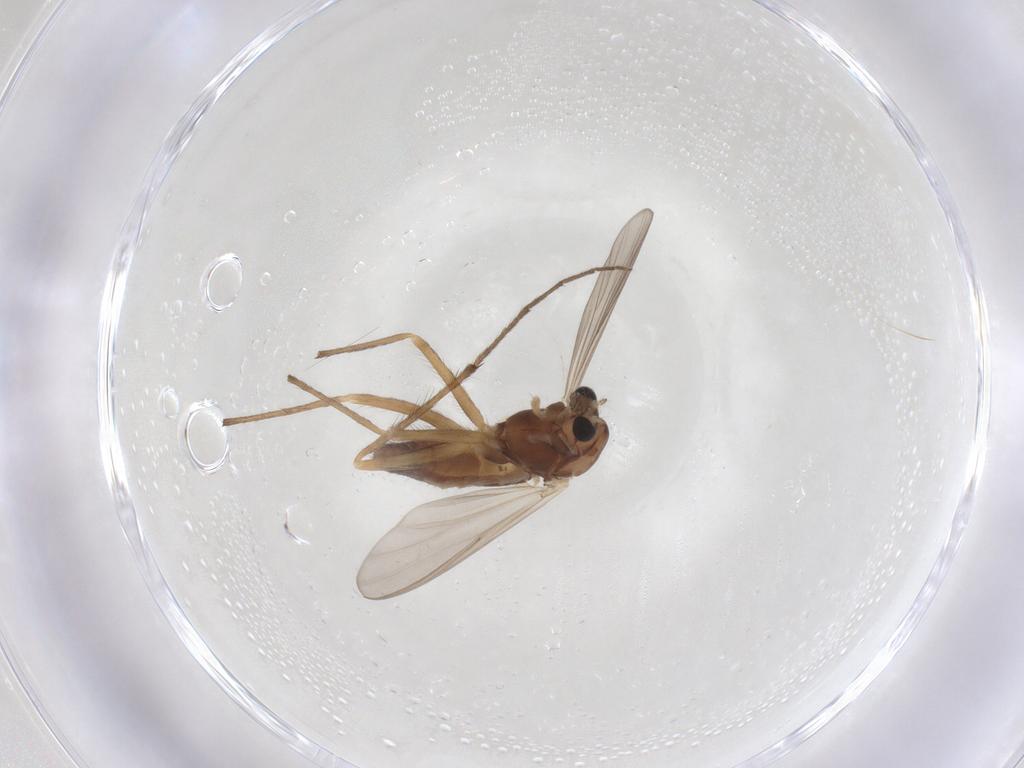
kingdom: Animalia
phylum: Arthropoda
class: Insecta
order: Diptera
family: Chironomidae
